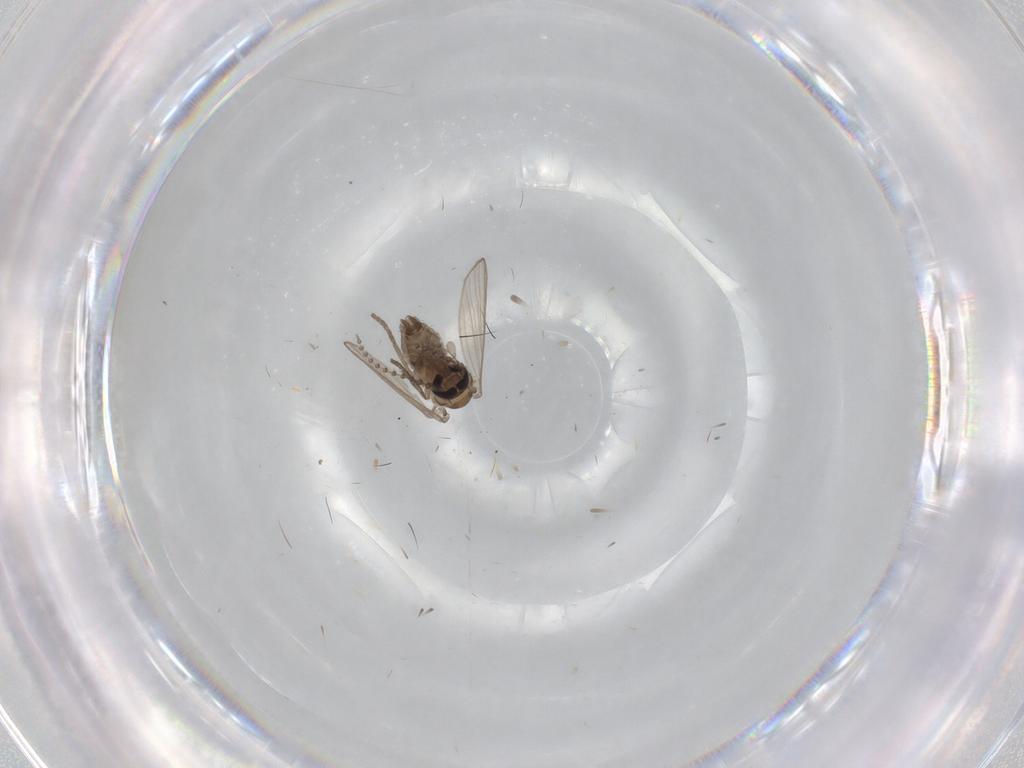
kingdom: Animalia
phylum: Arthropoda
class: Insecta
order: Diptera
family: Psychodidae
